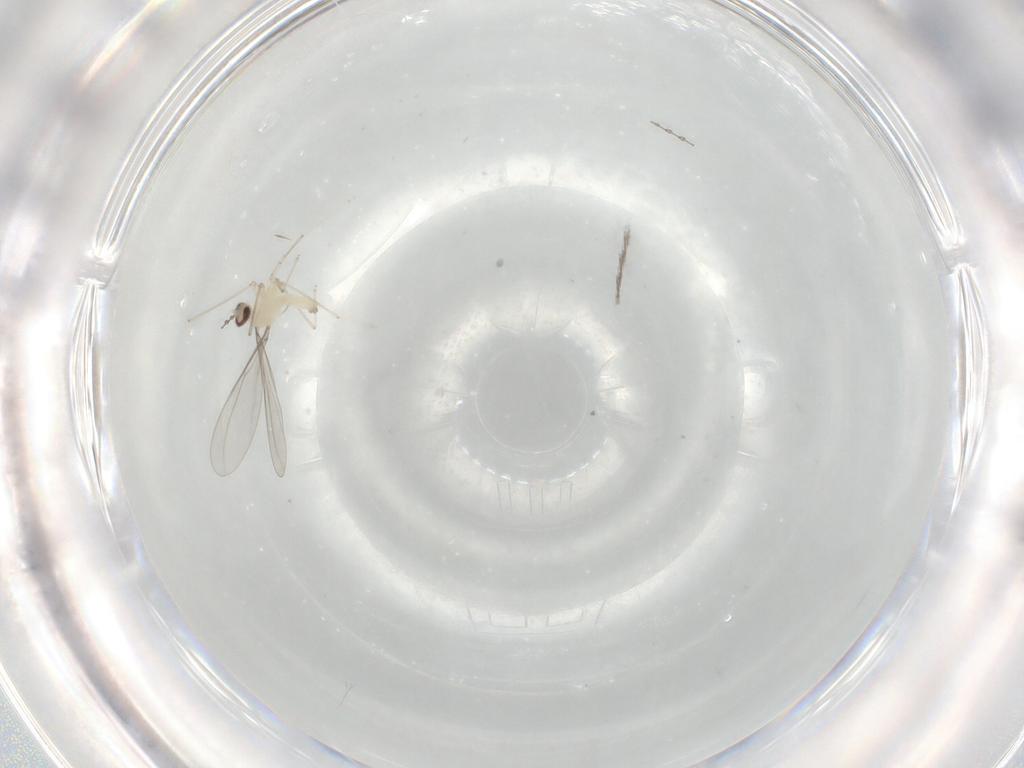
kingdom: Animalia
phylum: Arthropoda
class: Insecta
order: Diptera
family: Cecidomyiidae
